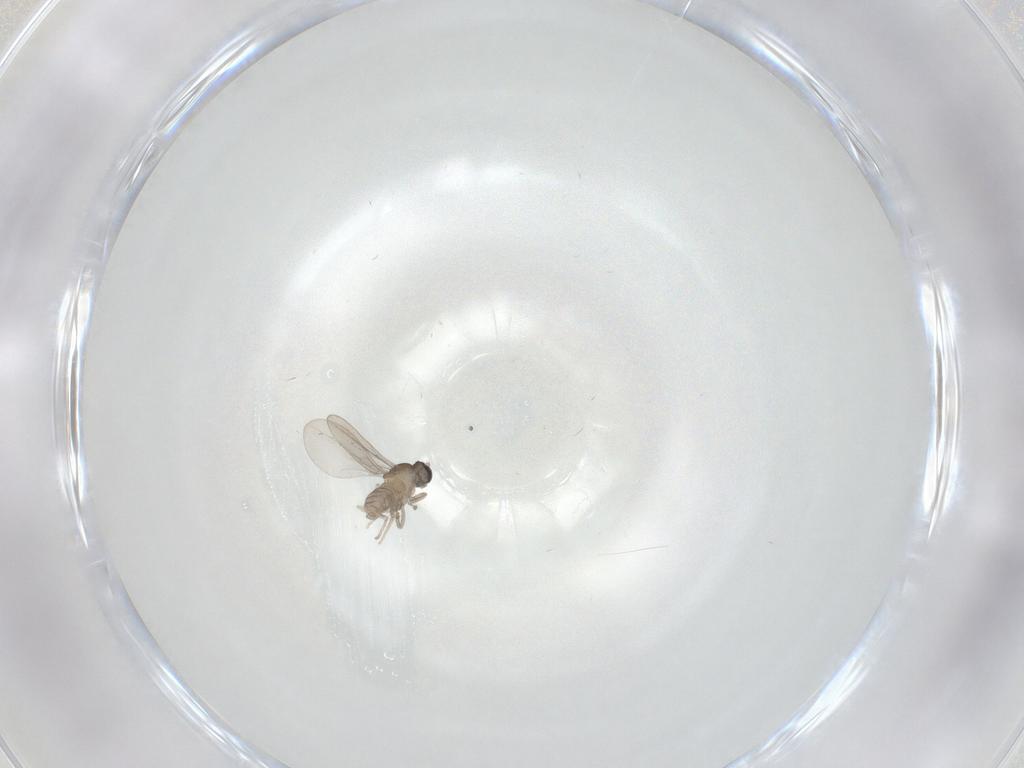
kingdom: Animalia
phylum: Arthropoda
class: Insecta
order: Diptera
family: Cecidomyiidae
